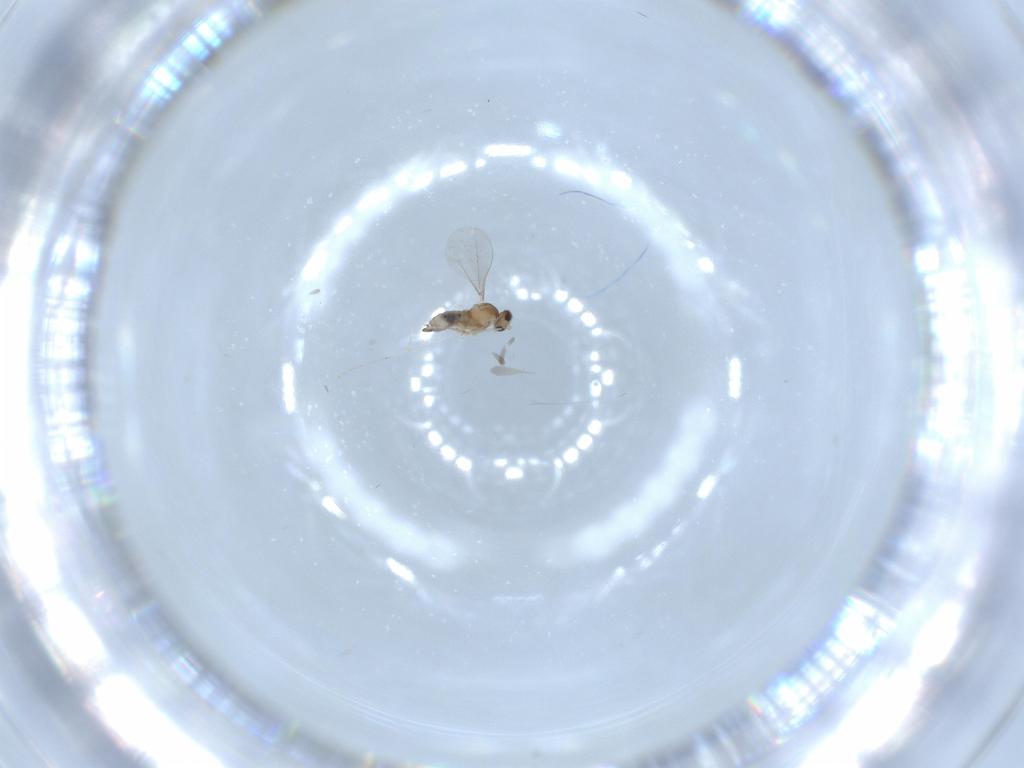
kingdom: Animalia
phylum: Arthropoda
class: Insecta
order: Diptera
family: Cecidomyiidae
